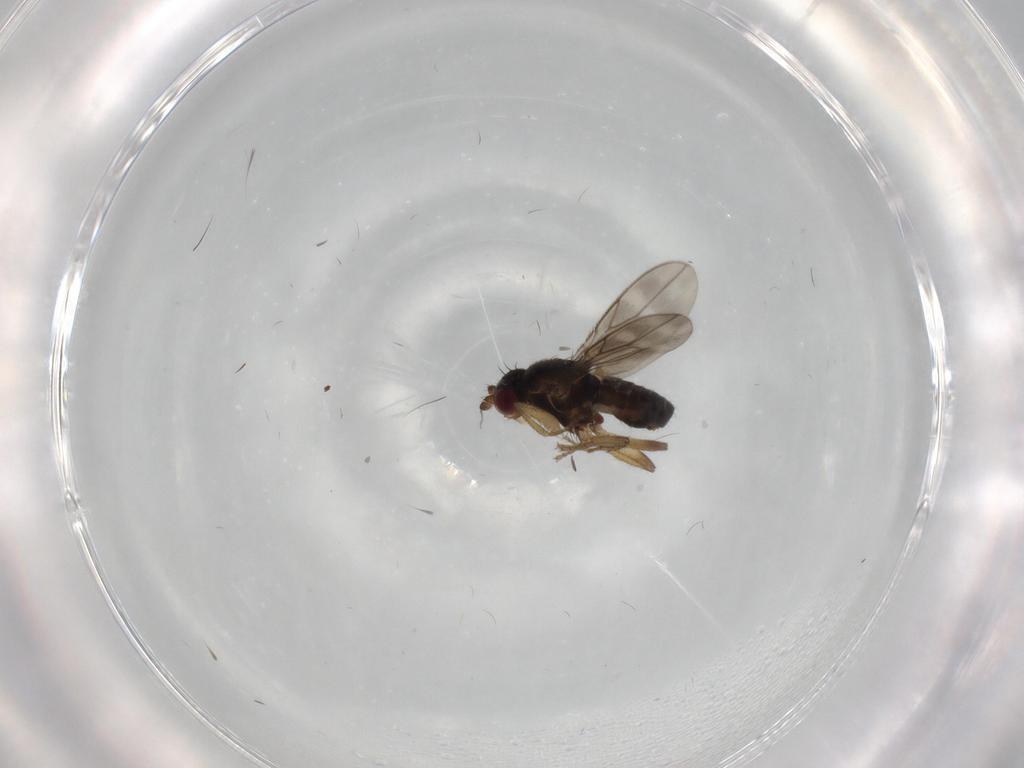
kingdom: Animalia
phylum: Arthropoda
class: Insecta
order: Diptera
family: Sphaeroceridae
